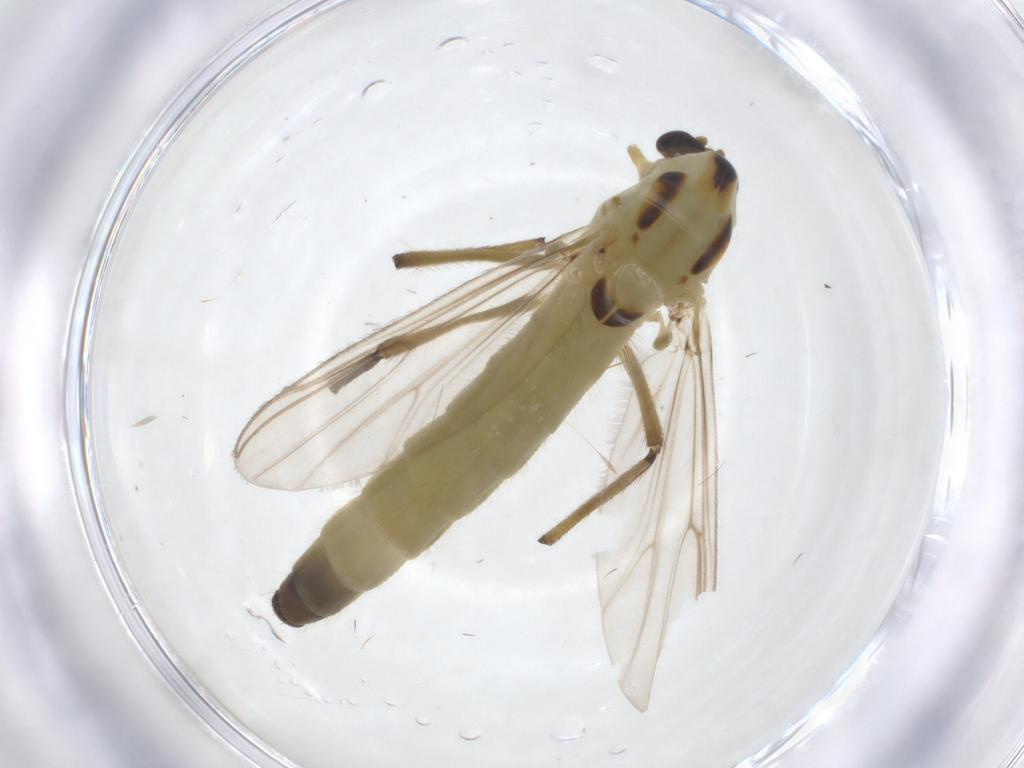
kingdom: Animalia
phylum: Arthropoda
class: Insecta
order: Diptera
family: Chironomidae
